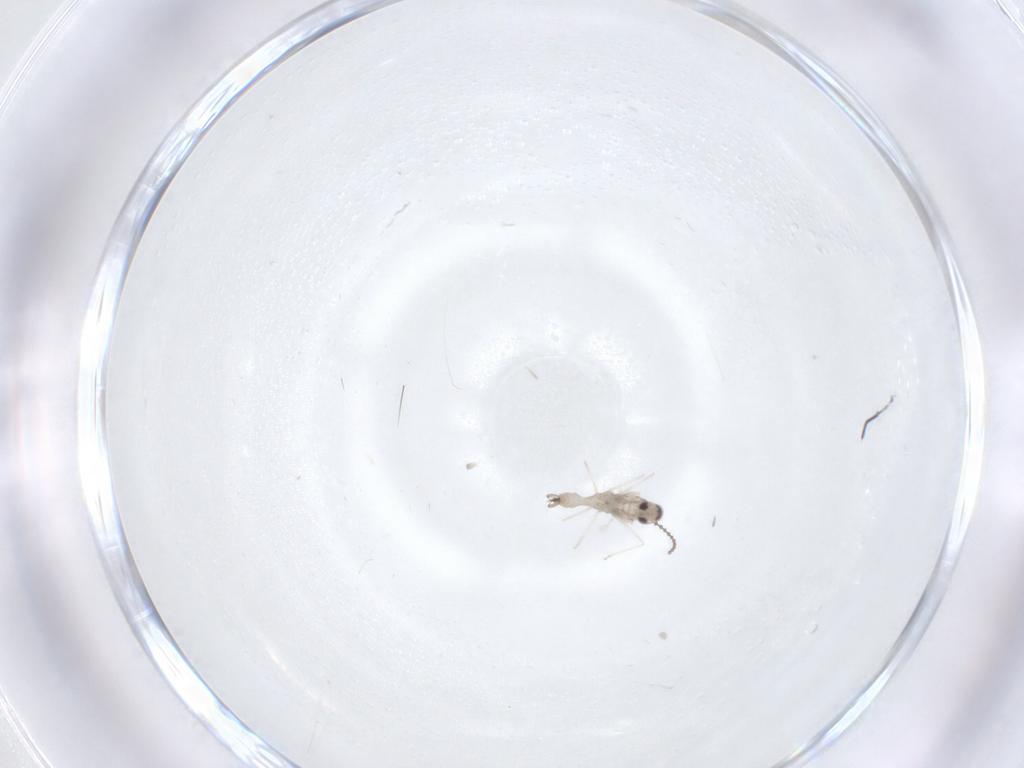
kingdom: Animalia
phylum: Arthropoda
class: Insecta
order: Diptera
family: Cecidomyiidae
